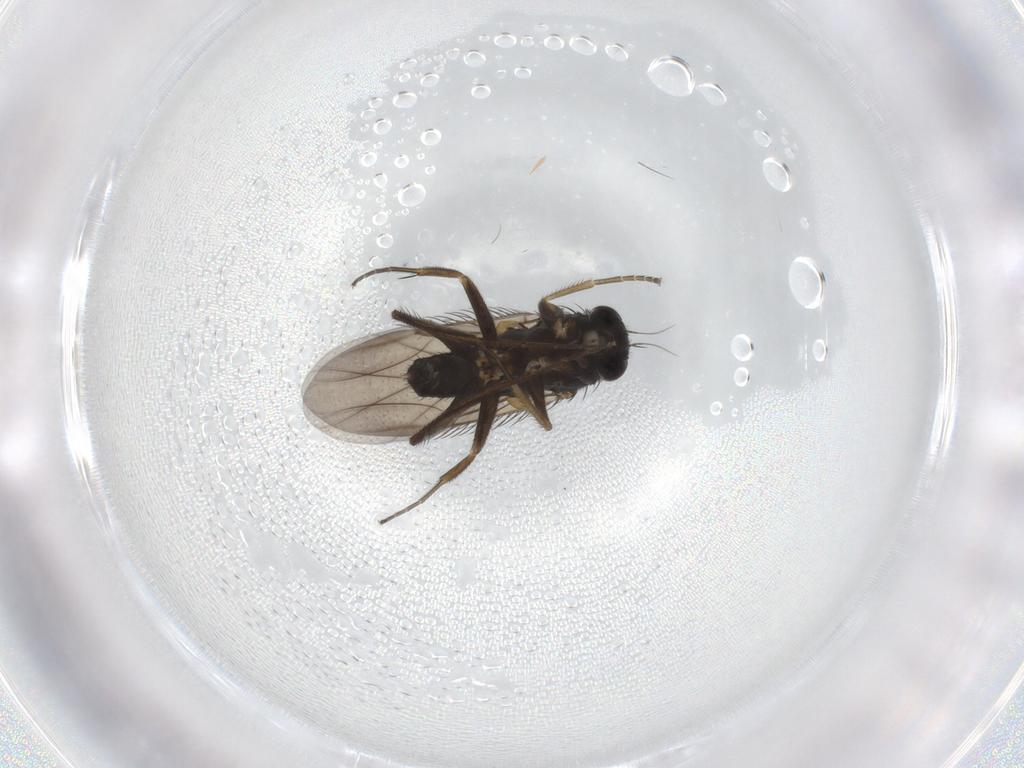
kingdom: Animalia
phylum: Arthropoda
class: Insecta
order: Diptera
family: Phoridae
